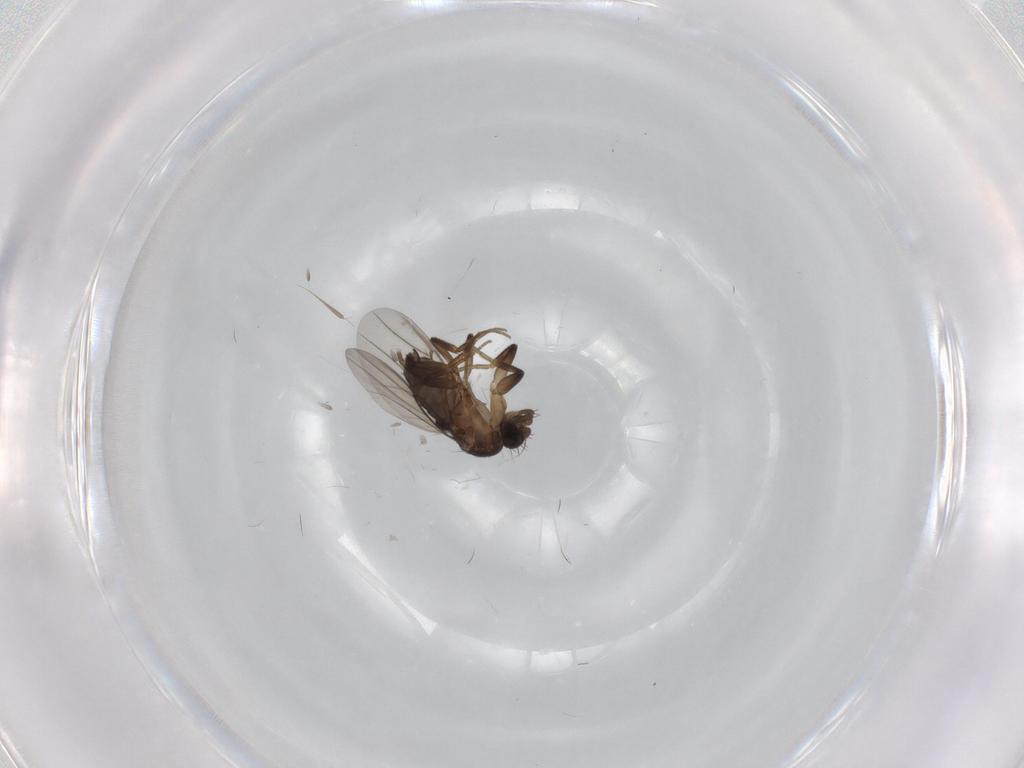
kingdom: Animalia
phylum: Arthropoda
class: Insecta
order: Diptera
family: Phoridae
